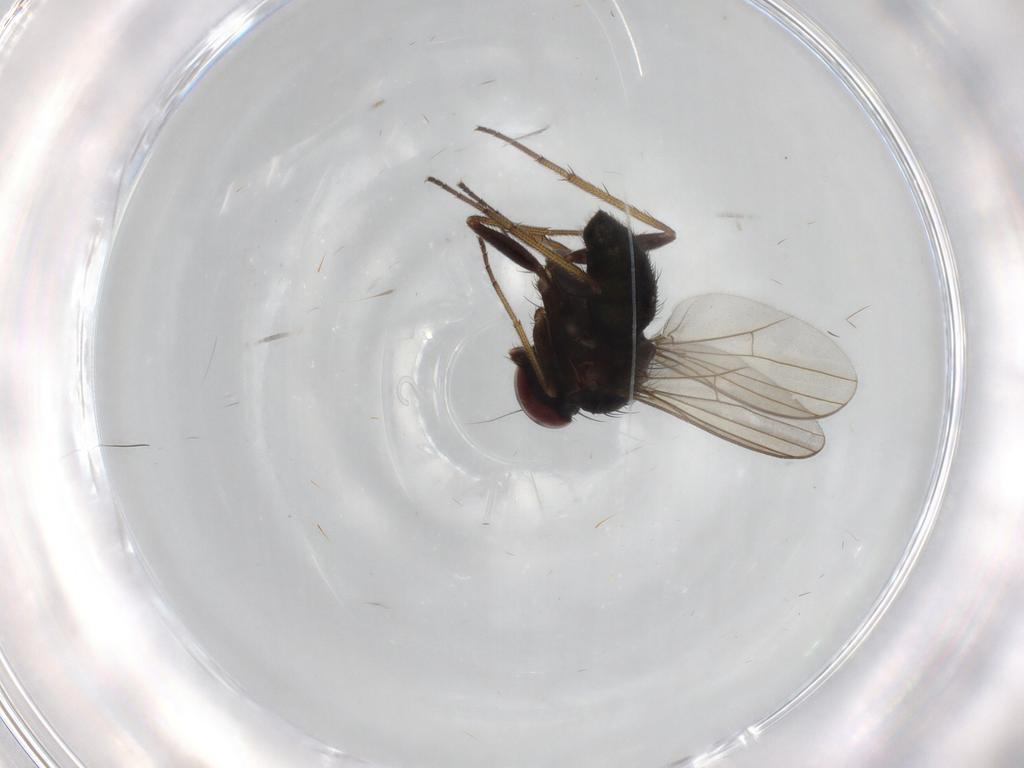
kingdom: Animalia
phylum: Arthropoda
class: Insecta
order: Diptera
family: Dolichopodidae
